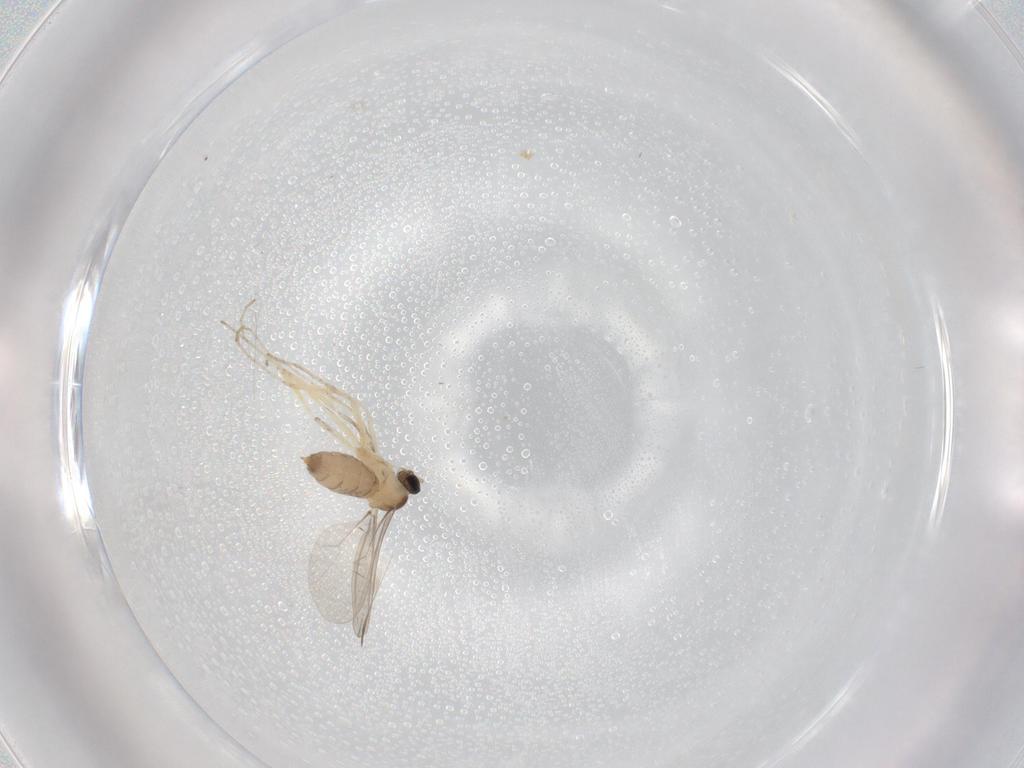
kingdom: Animalia
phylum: Arthropoda
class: Insecta
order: Diptera
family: Cecidomyiidae
